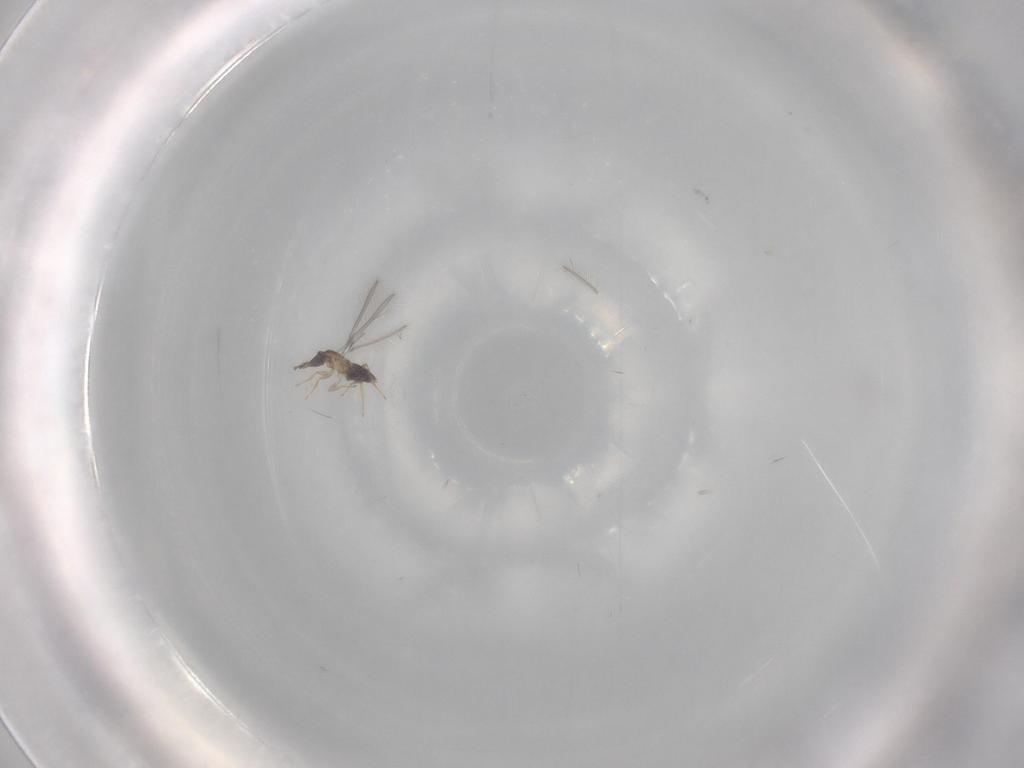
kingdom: Animalia
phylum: Arthropoda
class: Insecta
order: Hymenoptera
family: Mymaridae
